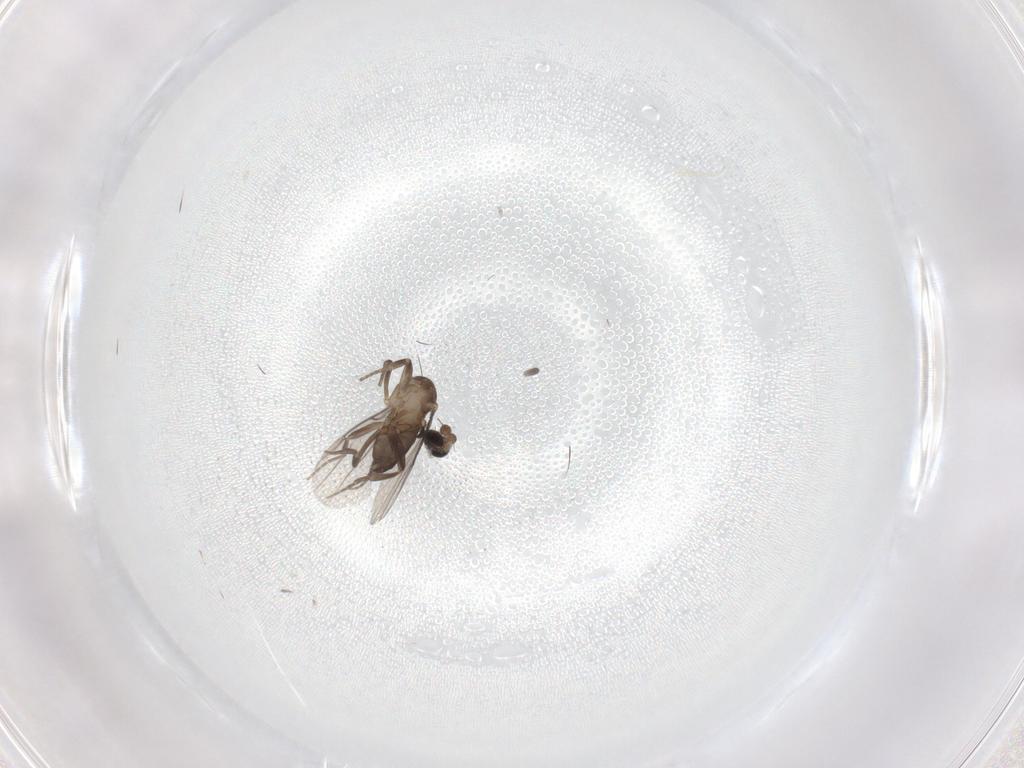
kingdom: Animalia
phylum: Arthropoda
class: Insecta
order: Diptera
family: Phoridae
